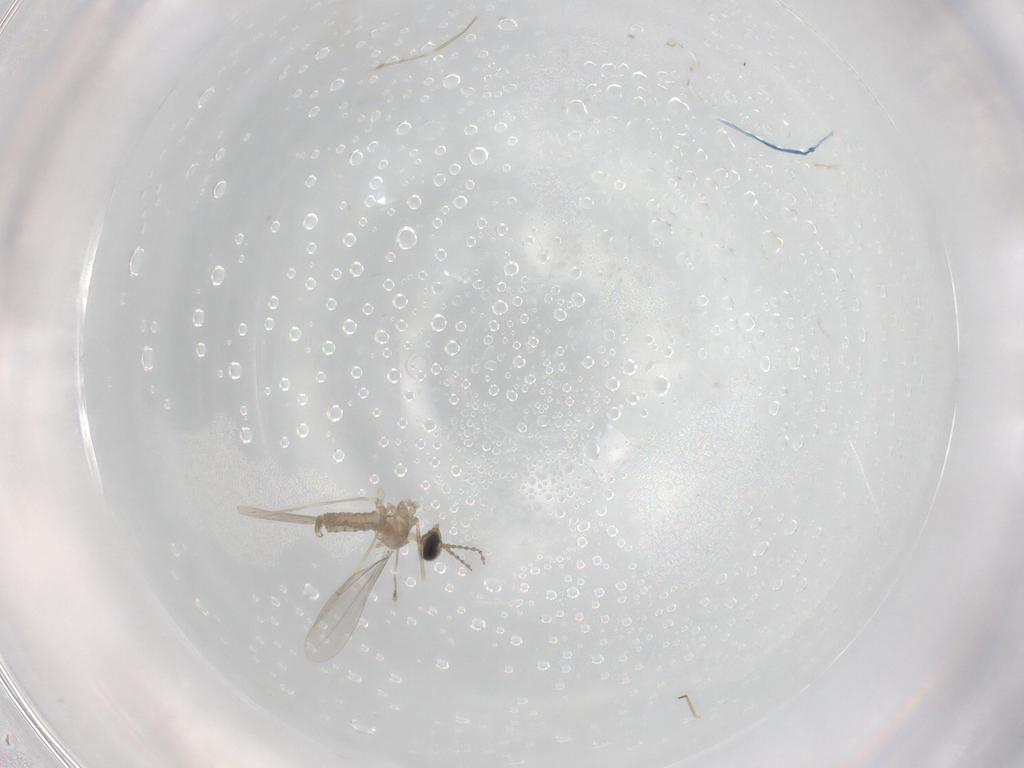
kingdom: Animalia
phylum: Arthropoda
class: Insecta
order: Diptera
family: Cecidomyiidae
